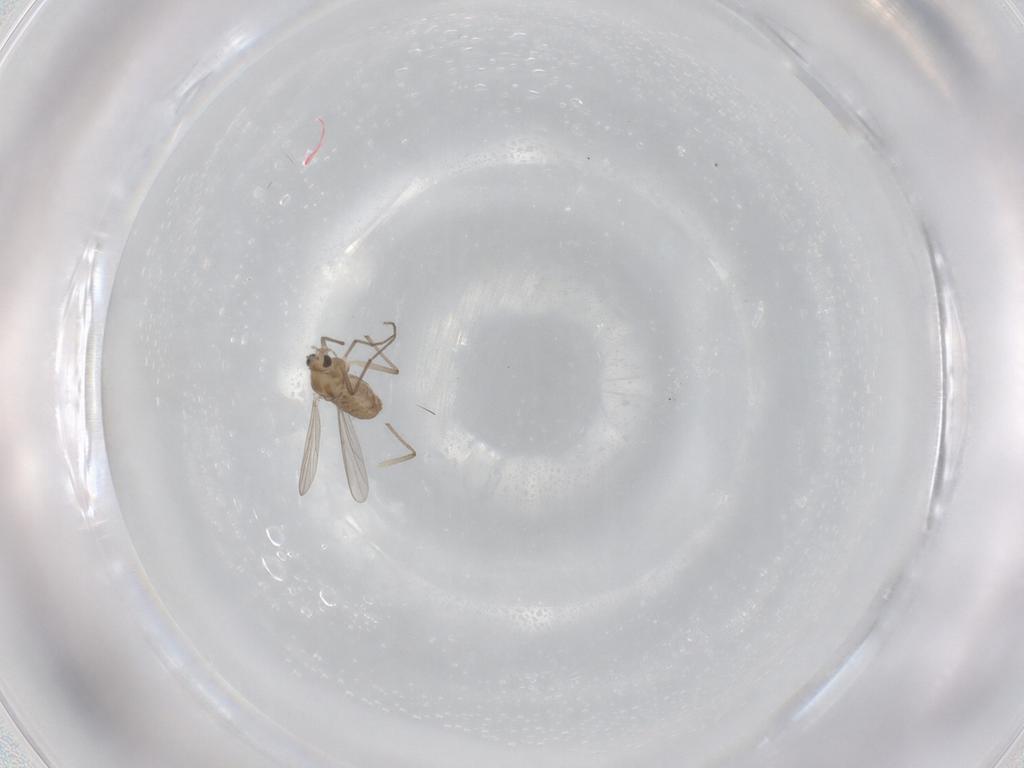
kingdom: Animalia
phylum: Arthropoda
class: Insecta
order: Diptera
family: Chironomidae
